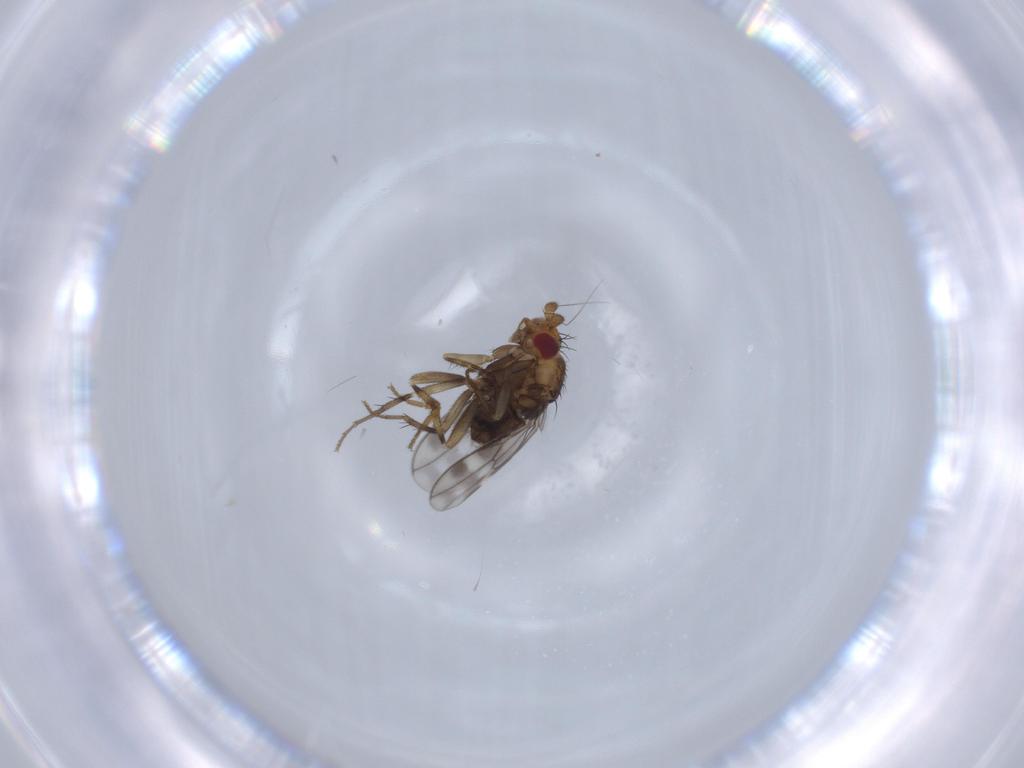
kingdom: Animalia
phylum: Arthropoda
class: Insecta
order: Diptera
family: Sphaeroceridae
